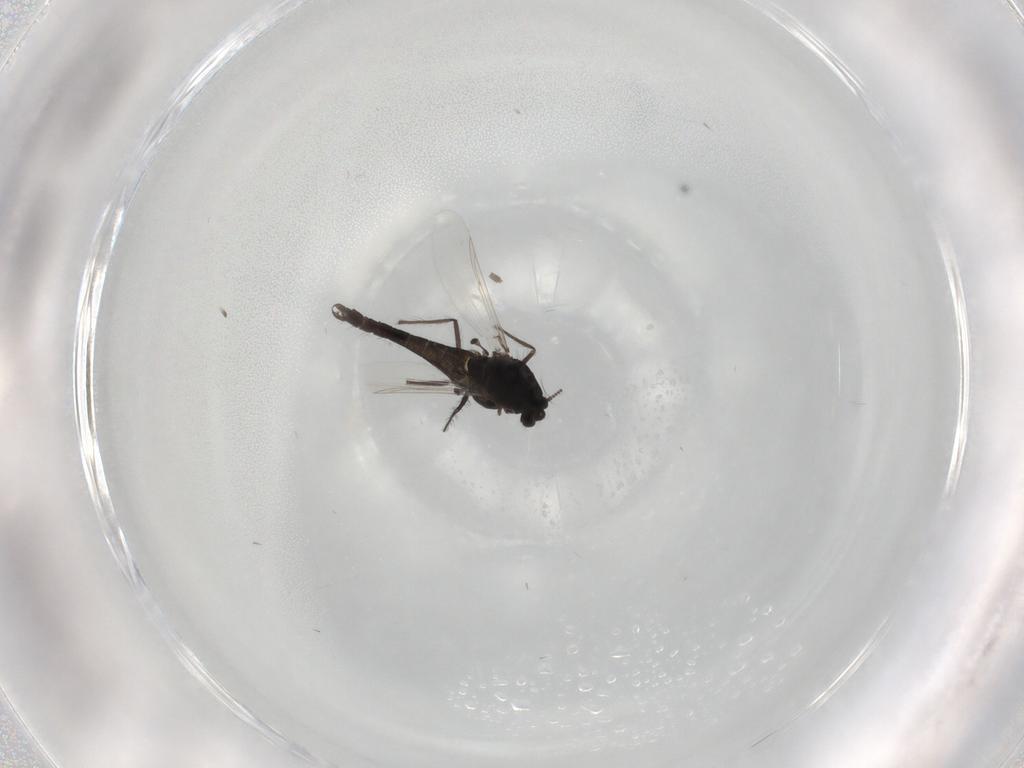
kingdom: Animalia
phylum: Arthropoda
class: Insecta
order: Diptera
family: Chironomidae
